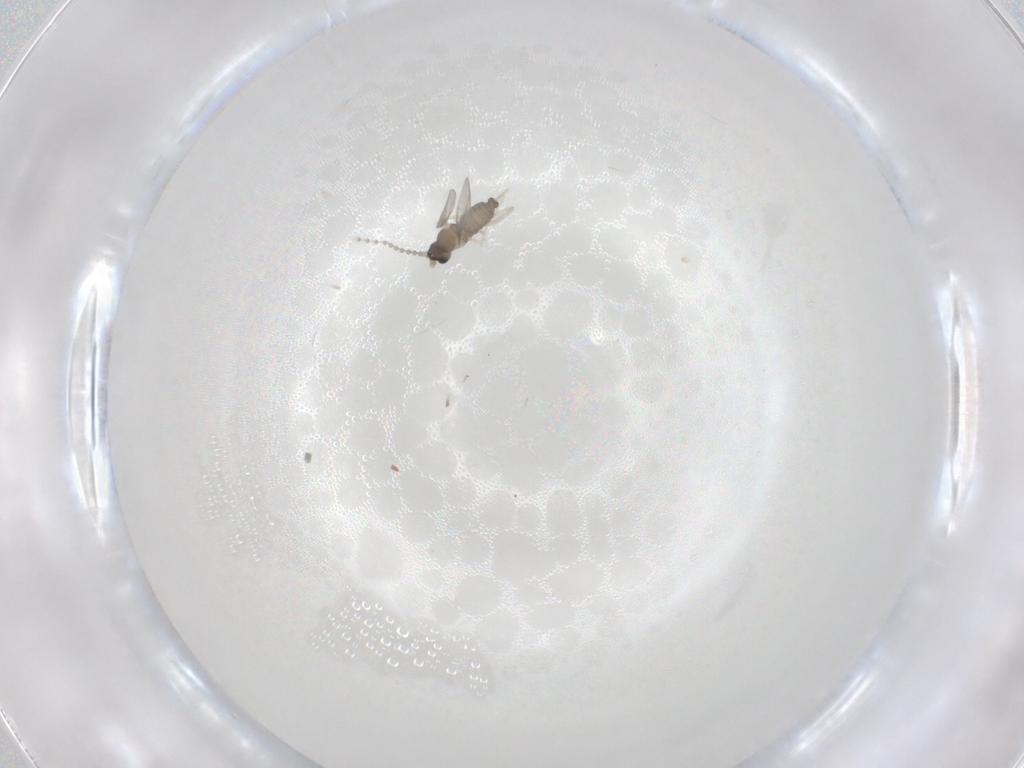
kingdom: Animalia
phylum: Arthropoda
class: Insecta
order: Diptera
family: Cecidomyiidae
